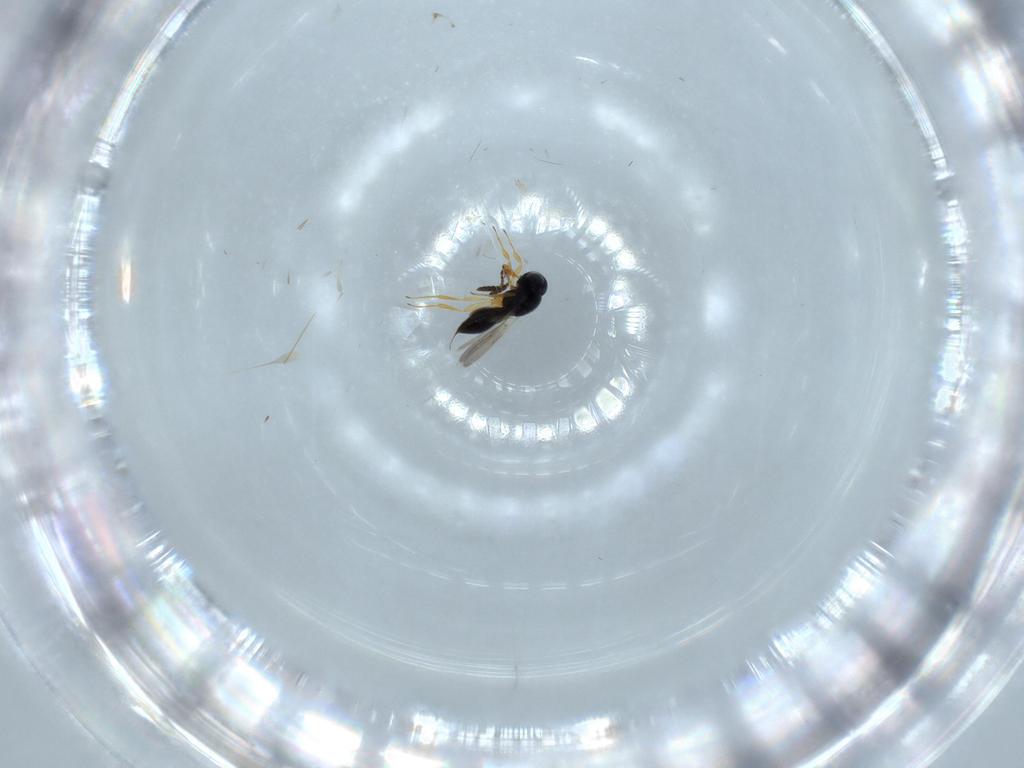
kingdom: Animalia
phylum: Arthropoda
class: Insecta
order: Hymenoptera
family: Scelionidae
